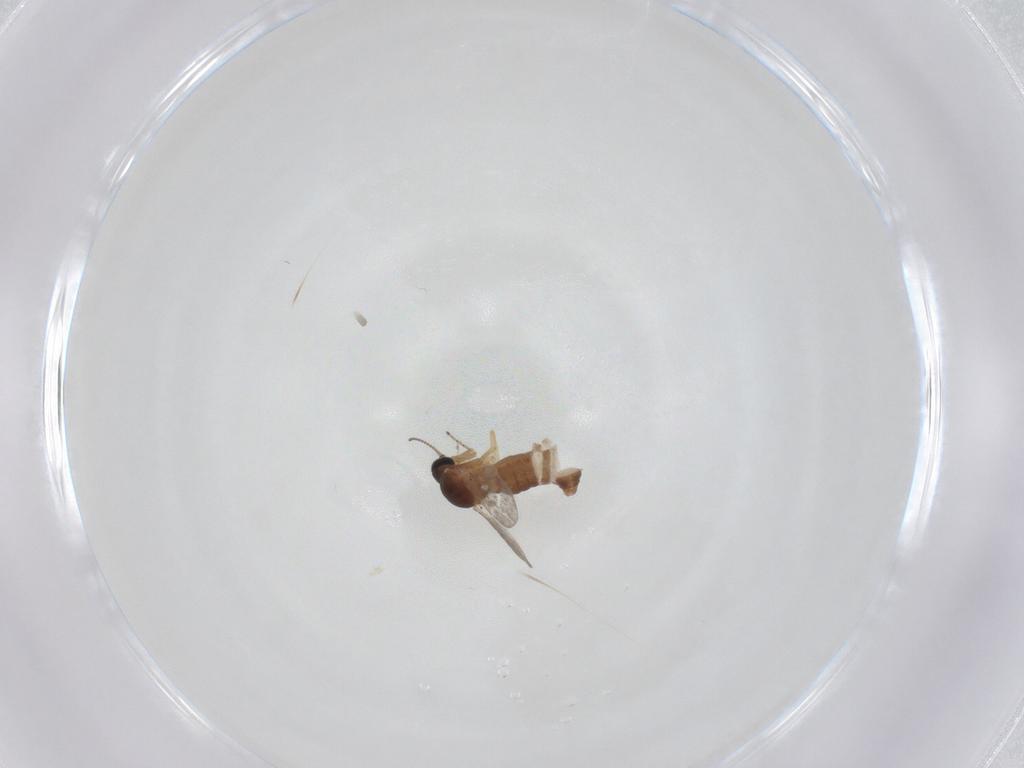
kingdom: Animalia
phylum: Arthropoda
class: Insecta
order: Diptera
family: Ceratopogonidae
